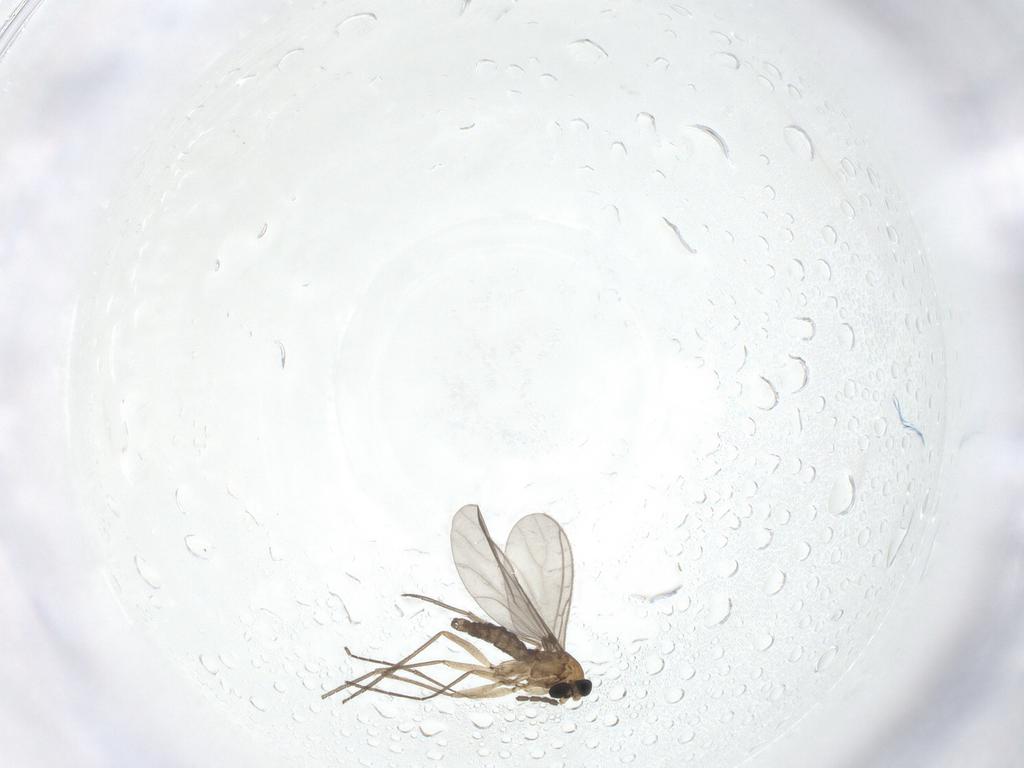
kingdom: Animalia
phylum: Arthropoda
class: Insecta
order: Diptera
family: Sciaridae
